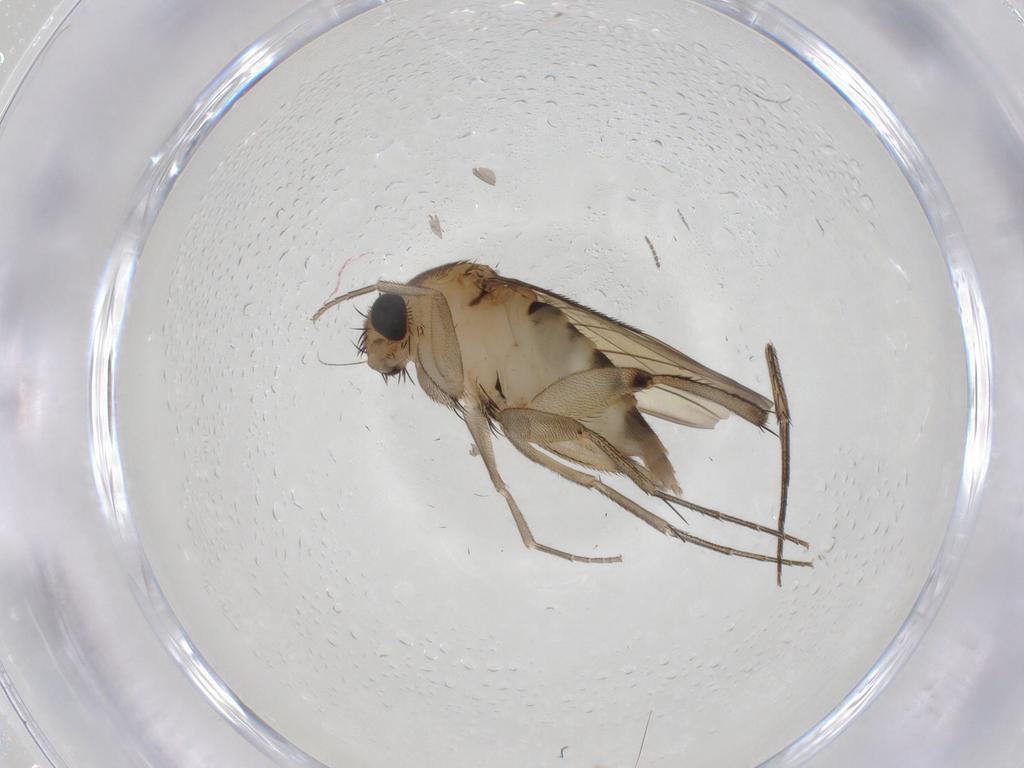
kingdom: Animalia
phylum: Arthropoda
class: Insecta
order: Diptera
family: Phoridae
